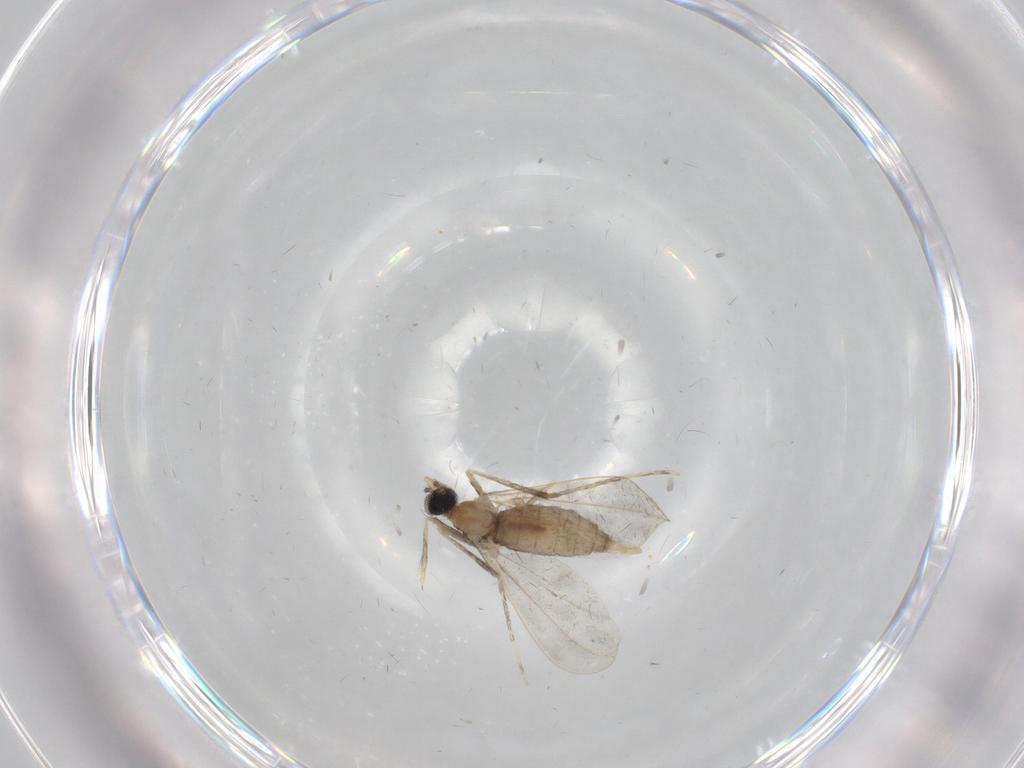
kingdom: Animalia
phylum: Arthropoda
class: Insecta
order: Diptera
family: Cecidomyiidae
